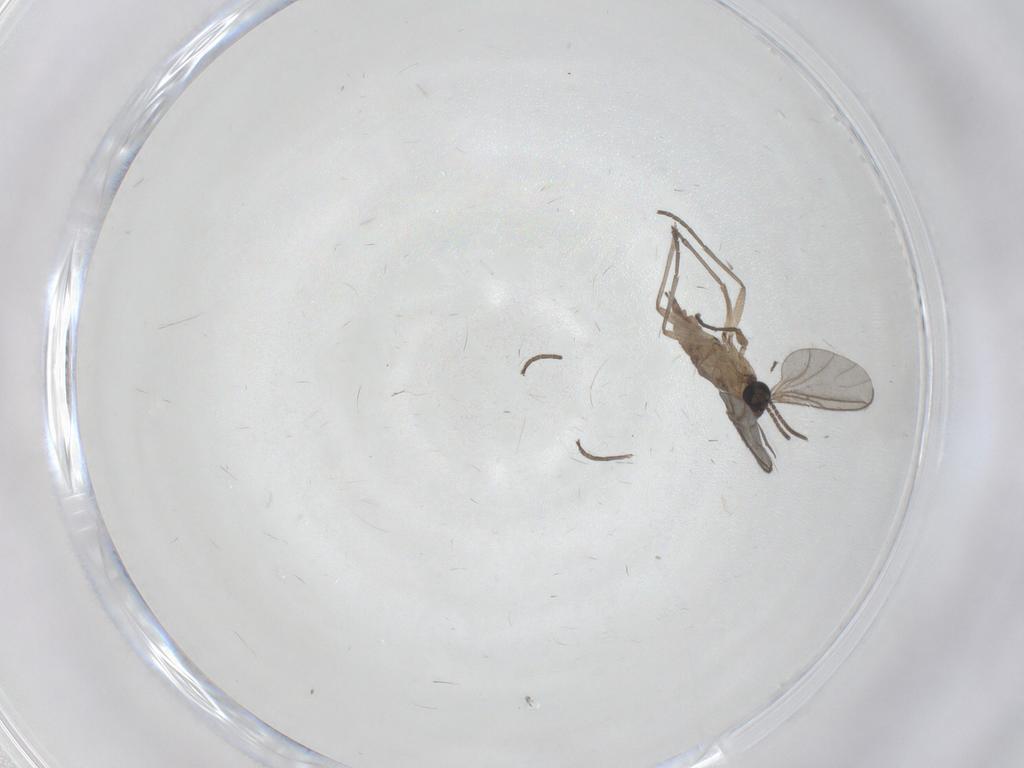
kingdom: Animalia
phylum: Arthropoda
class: Insecta
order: Diptera
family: Sciaridae
